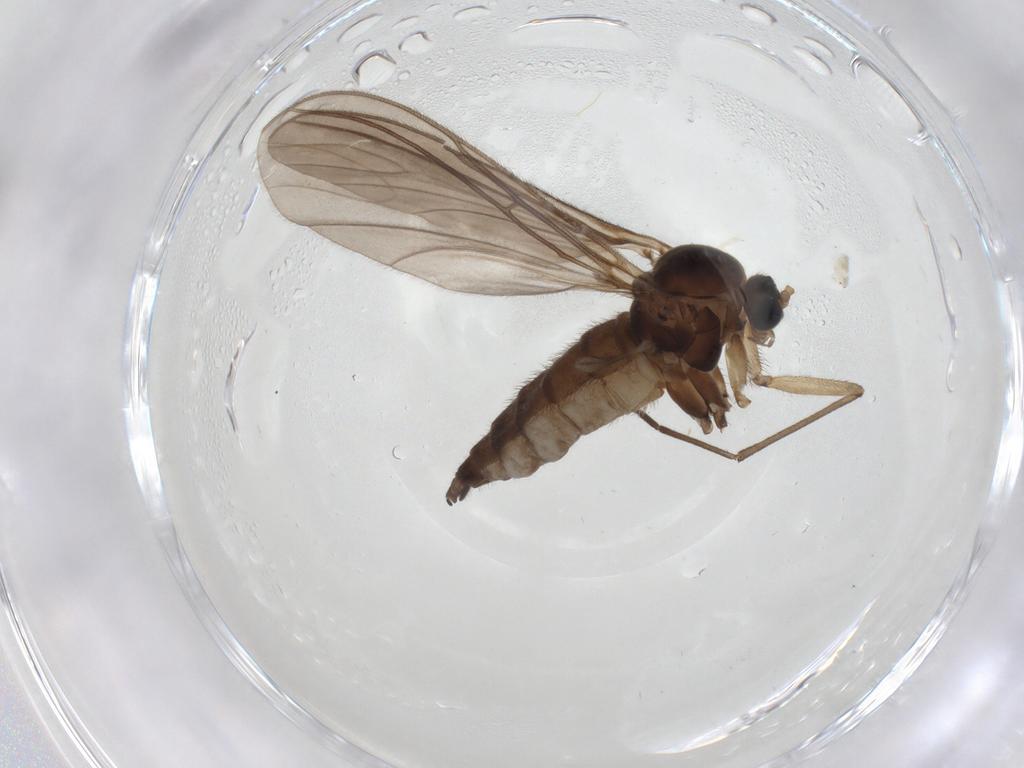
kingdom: Animalia
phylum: Arthropoda
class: Insecta
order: Diptera
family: Sciaridae
